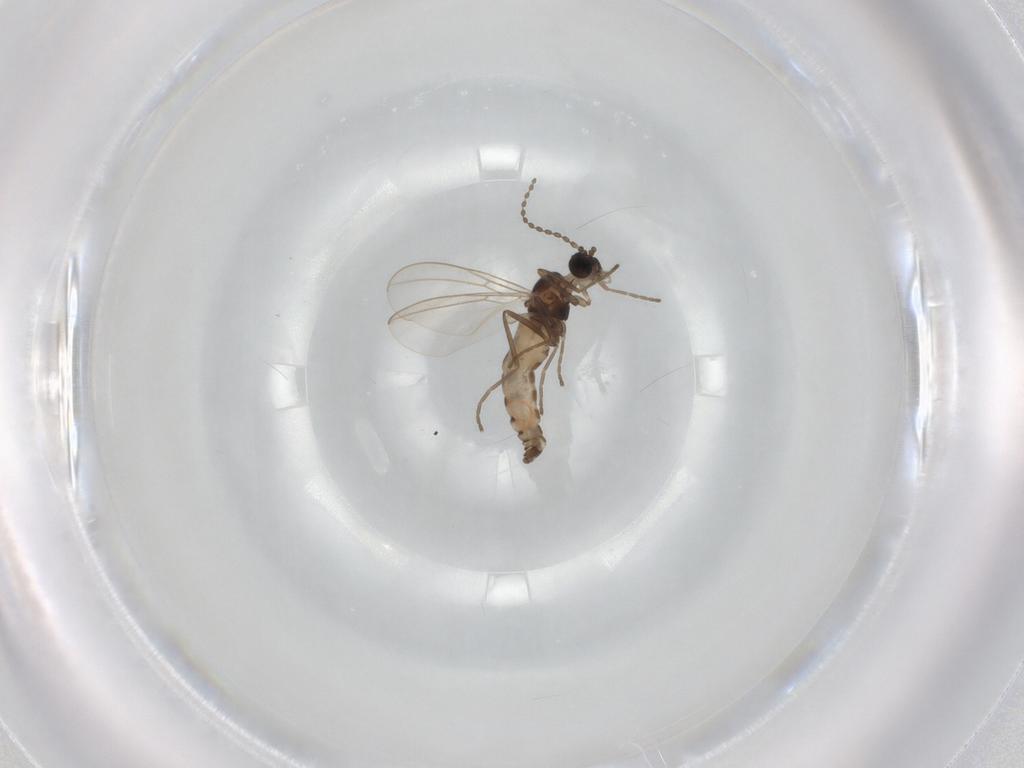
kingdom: Animalia
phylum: Arthropoda
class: Insecta
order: Diptera
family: Cecidomyiidae
